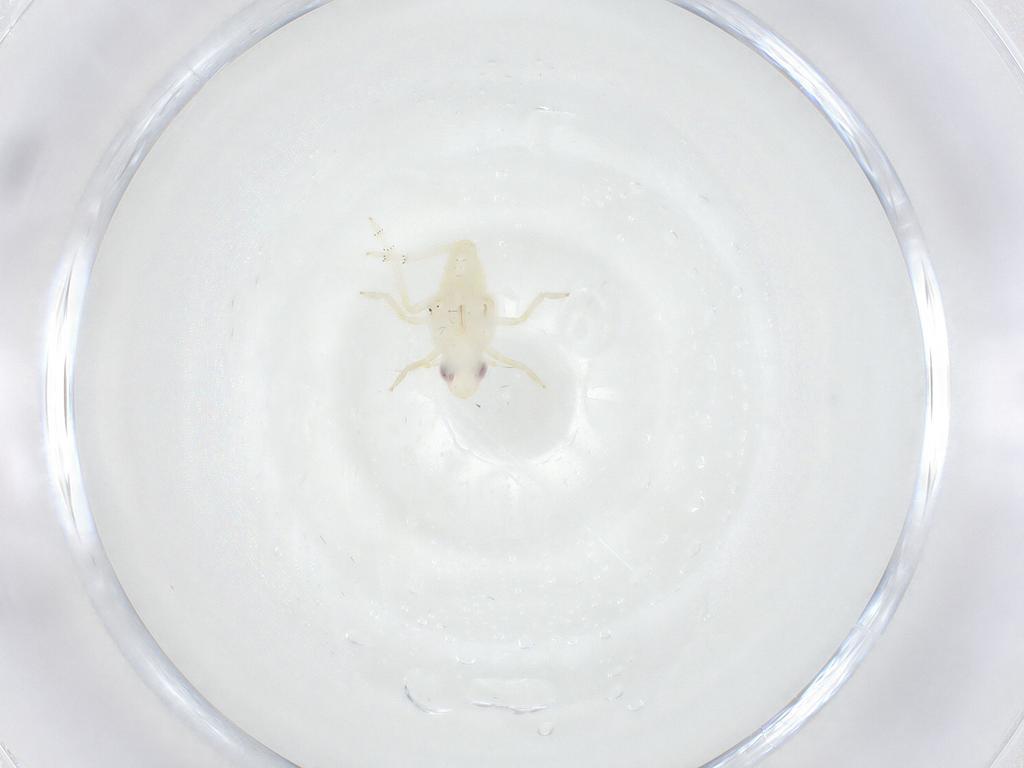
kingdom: Animalia
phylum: Arthropoda
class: Insecta
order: Hemiptera
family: Tropiduchidae
